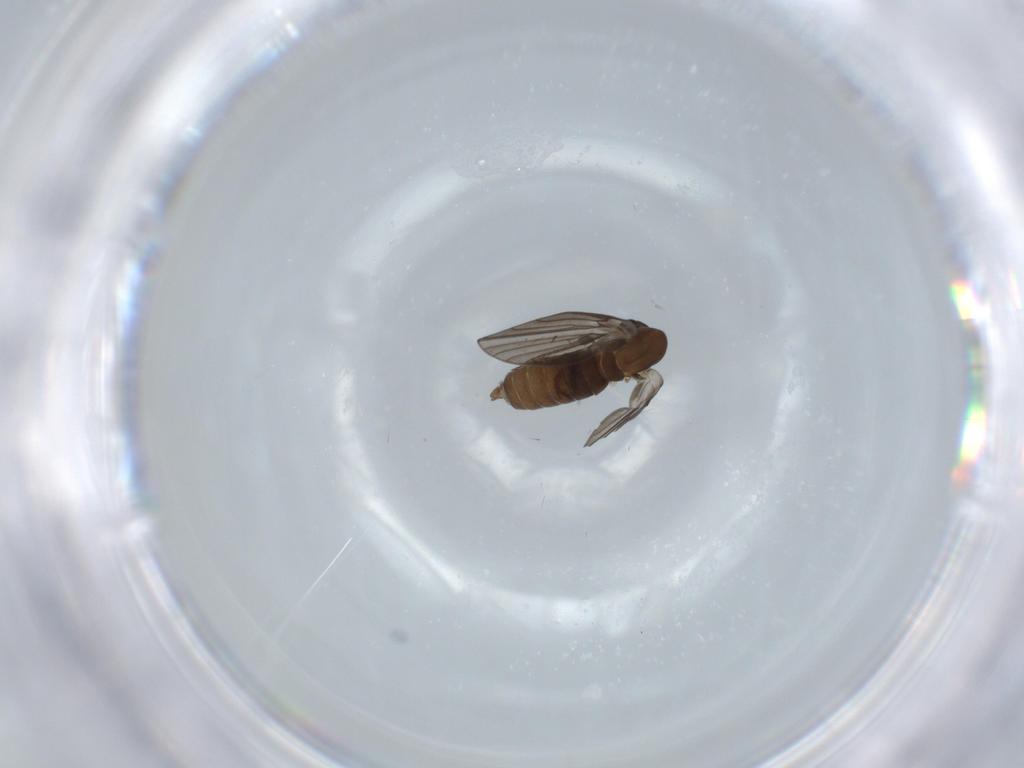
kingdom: Animalia
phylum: Arthropoda
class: Insecta
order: Diptera
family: Psychodidae
